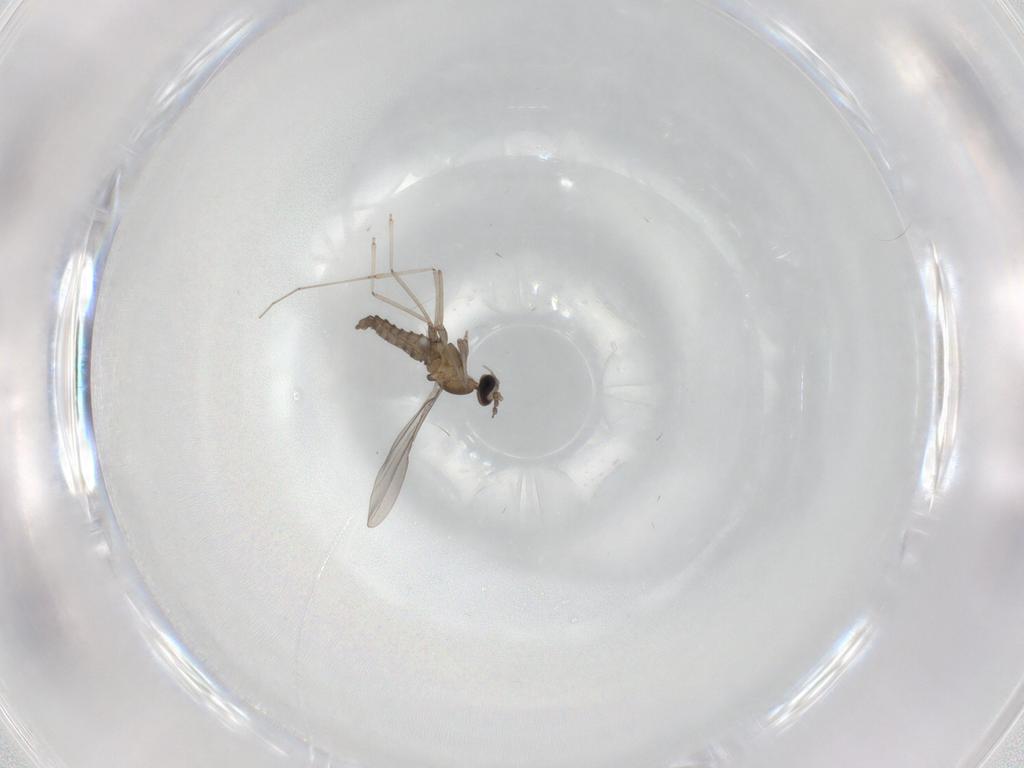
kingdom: Animalia
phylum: Arthropoda
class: Insecta
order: Diptera
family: Cecidomyiidae
